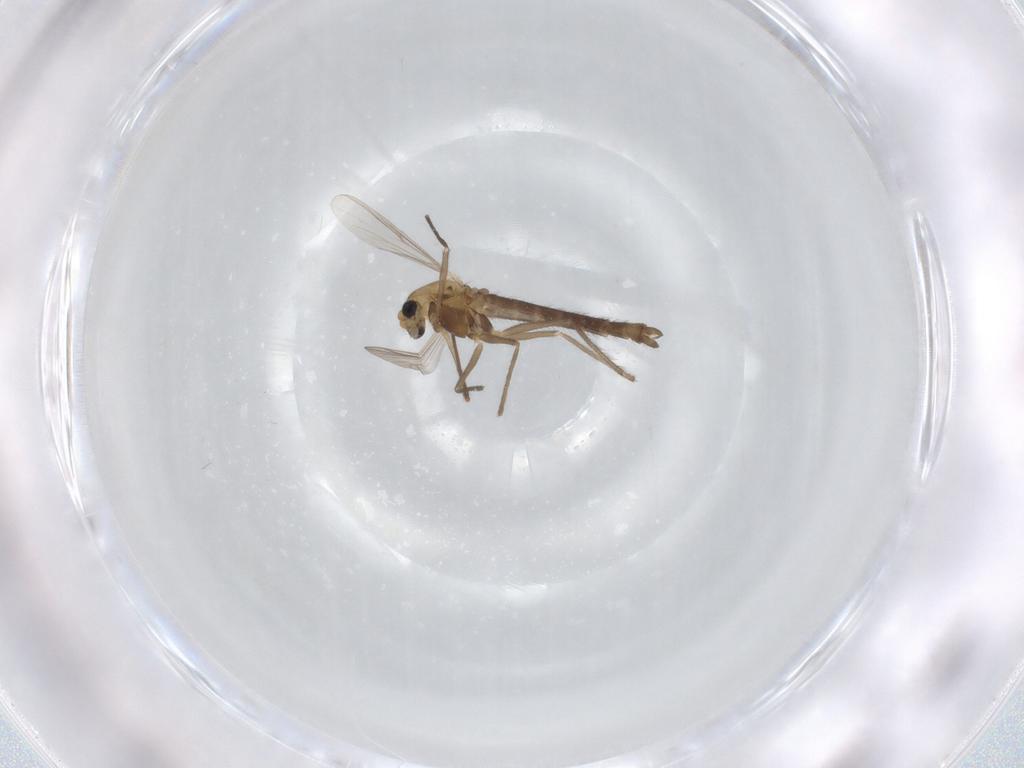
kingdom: Animalia
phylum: Arthropoda
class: Insecta
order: Diptera
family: Chironomidae
